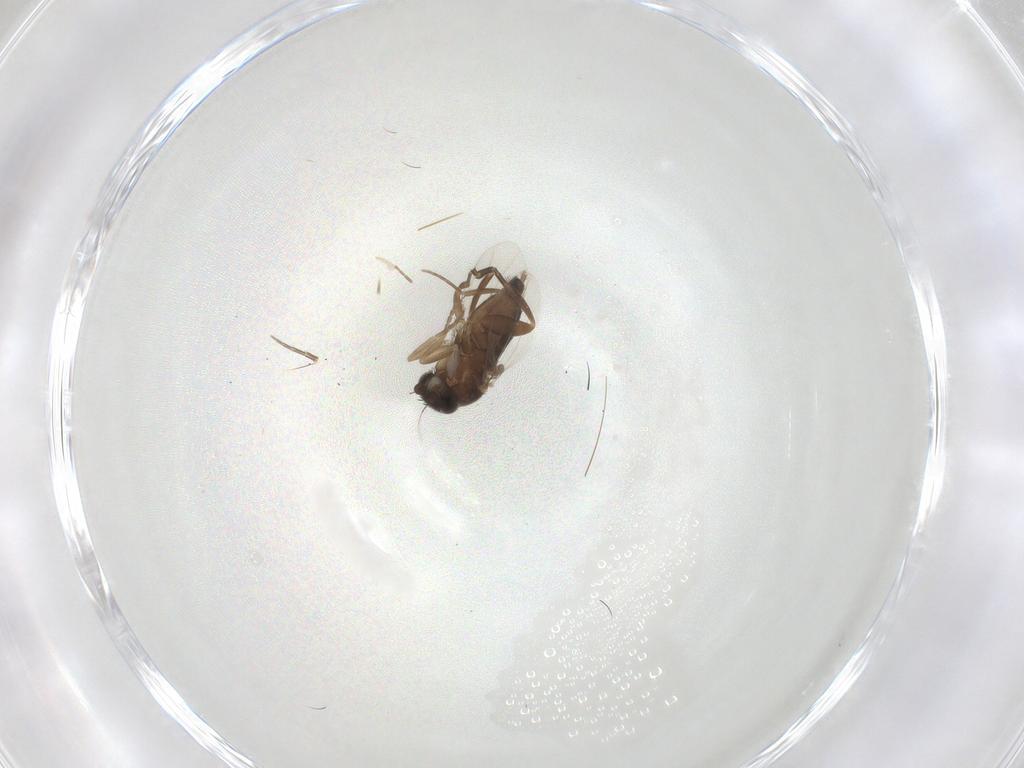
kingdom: Animalia
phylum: Arthropoda
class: Insecta
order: Diptera
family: Phoridae
